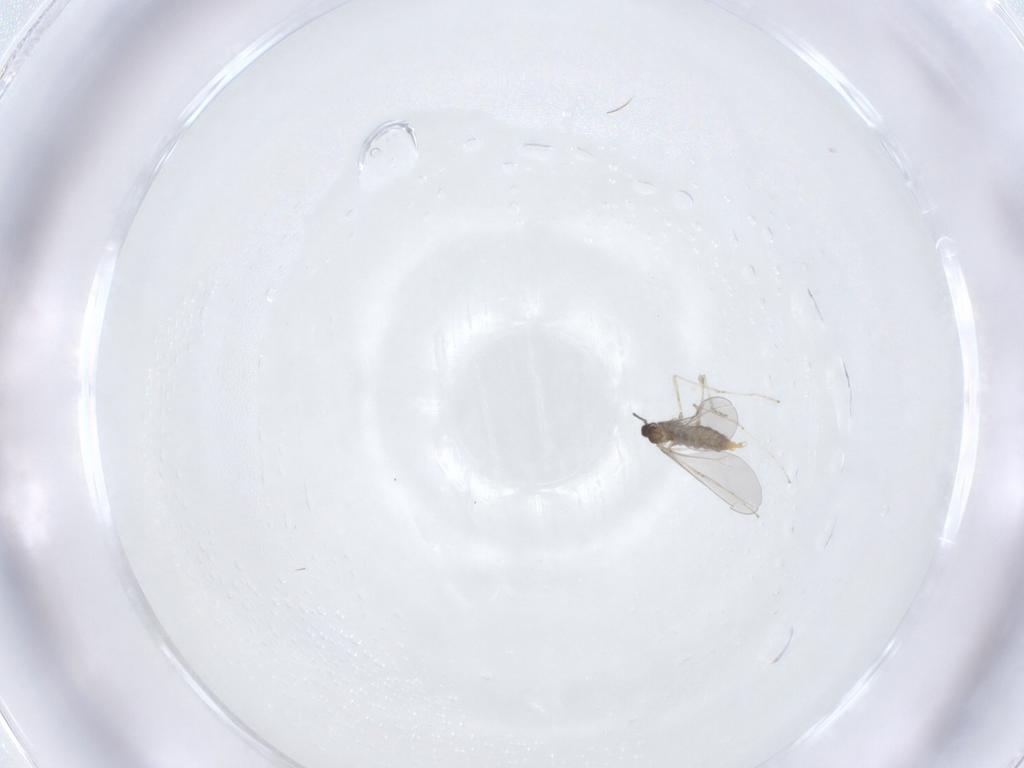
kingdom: Animalia
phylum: Arthropoda
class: Insecta
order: Diptera
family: Cecidomyiidae
